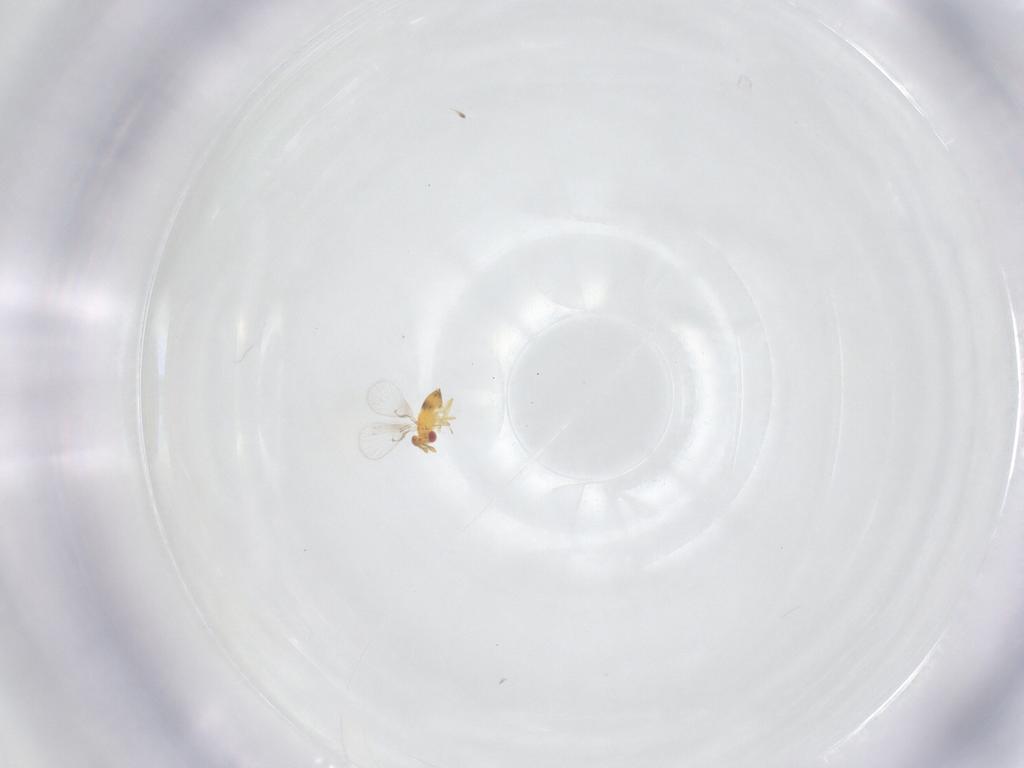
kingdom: Animalia
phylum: Arthropoda
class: Insecta
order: Hymenoptera
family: Trichogrammatidae
